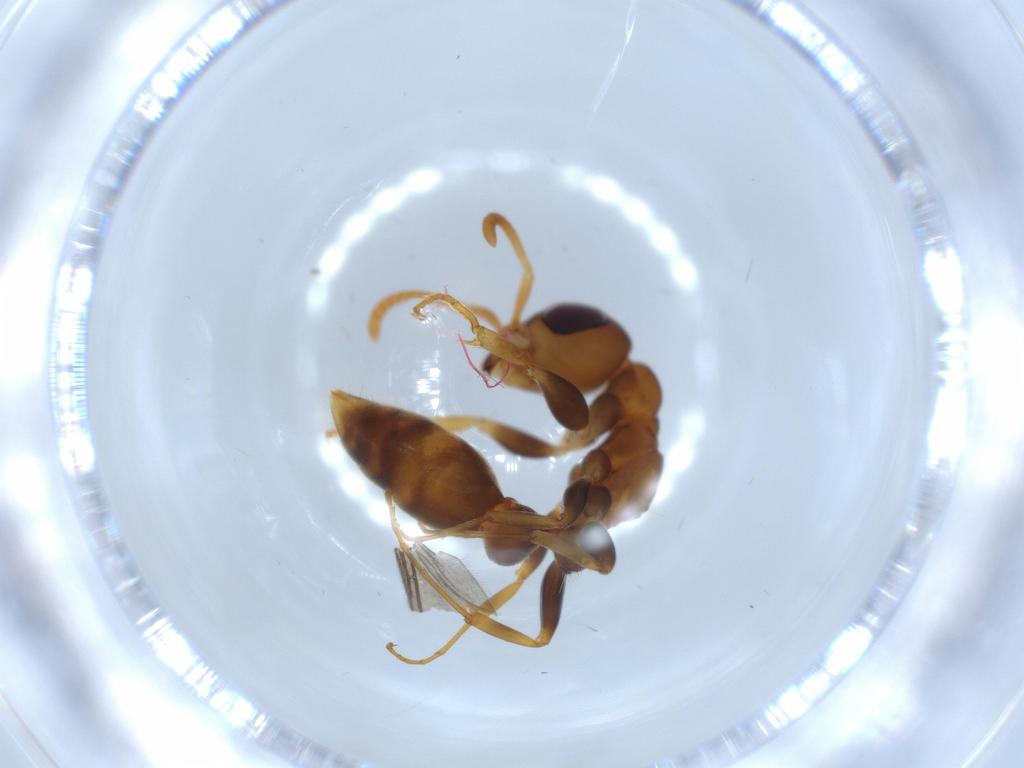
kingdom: Animalia
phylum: Arthropoda
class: Insecta
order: Hymenoptera
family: Formicidae
